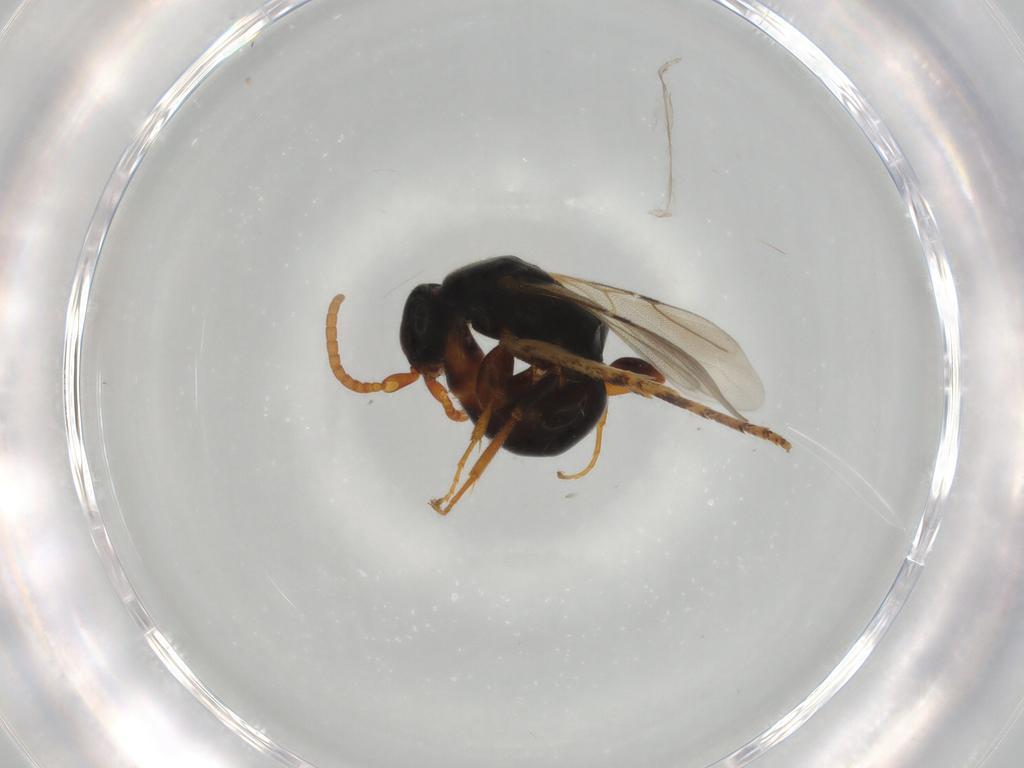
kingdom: Animalia
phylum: Arthropoda
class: Insecta
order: Hymenoptera
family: Bethylidae
